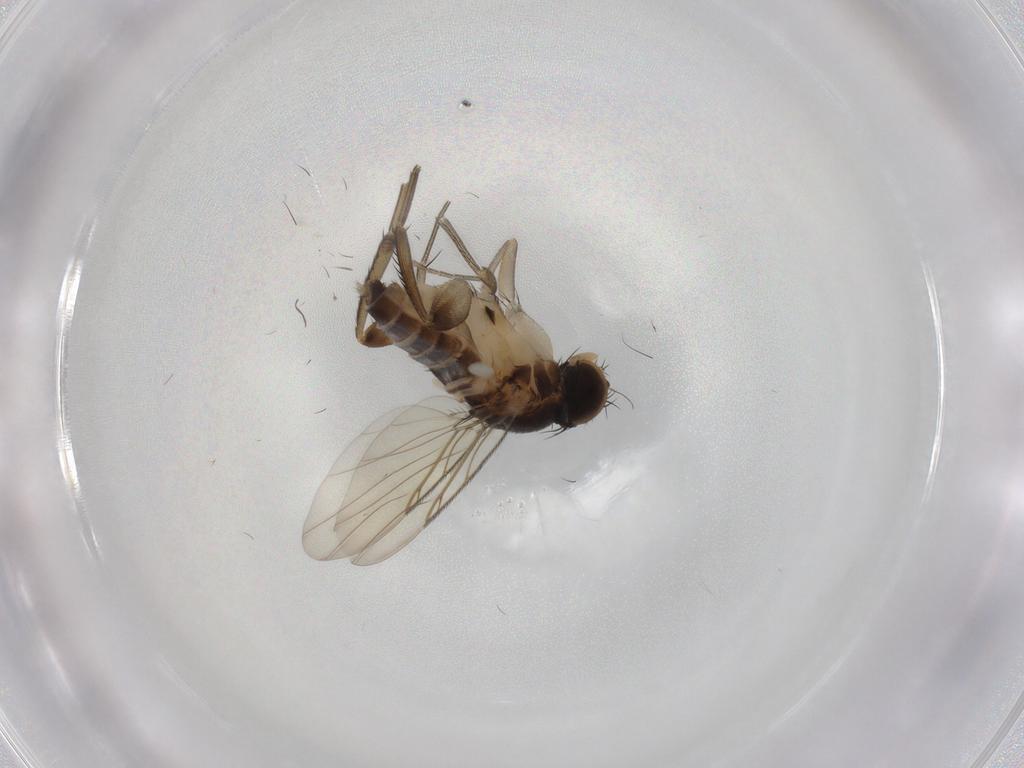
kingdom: Animalia
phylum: Arthropoda
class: Insecta
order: Diptera
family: Phoridae
